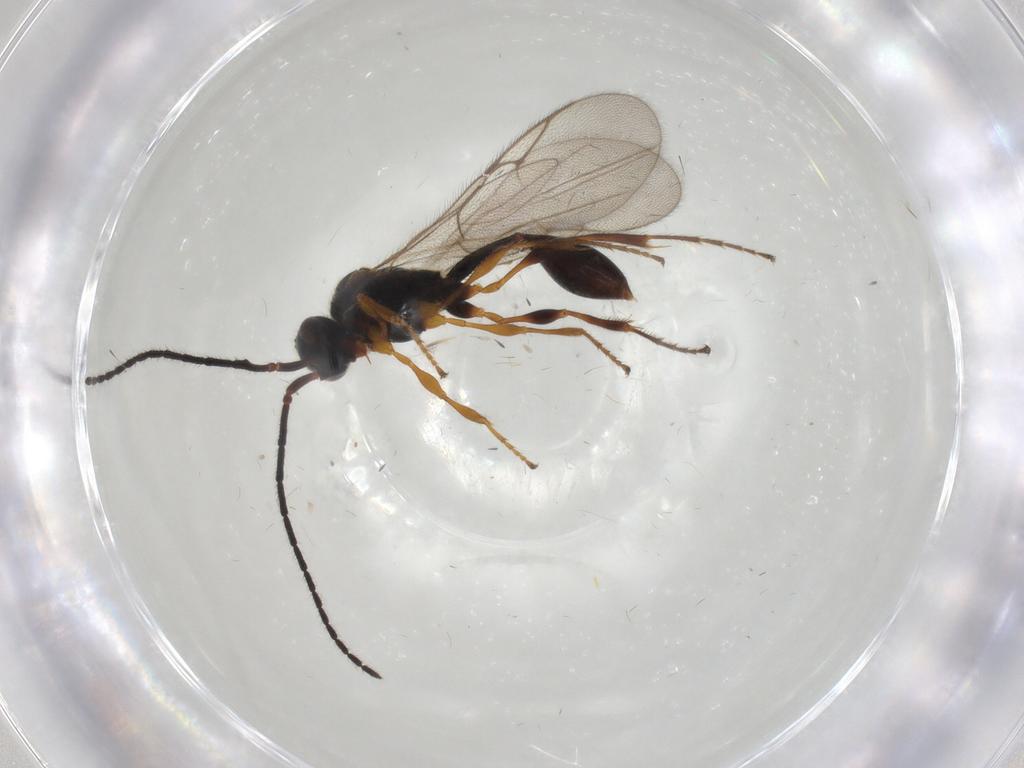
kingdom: Animalia
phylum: Arthropoda
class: Insecta
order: Hymenoptera
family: Diapriidae
